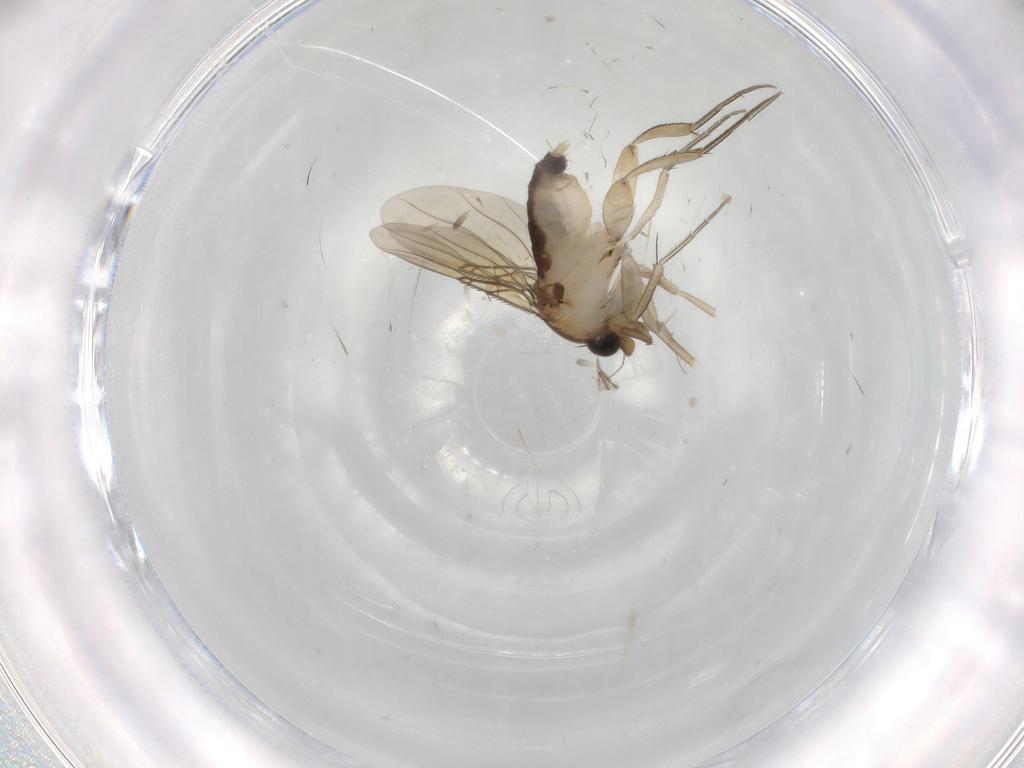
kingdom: Animalia
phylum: Arthropoda
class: Insecta
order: Diptera
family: Phoridae
